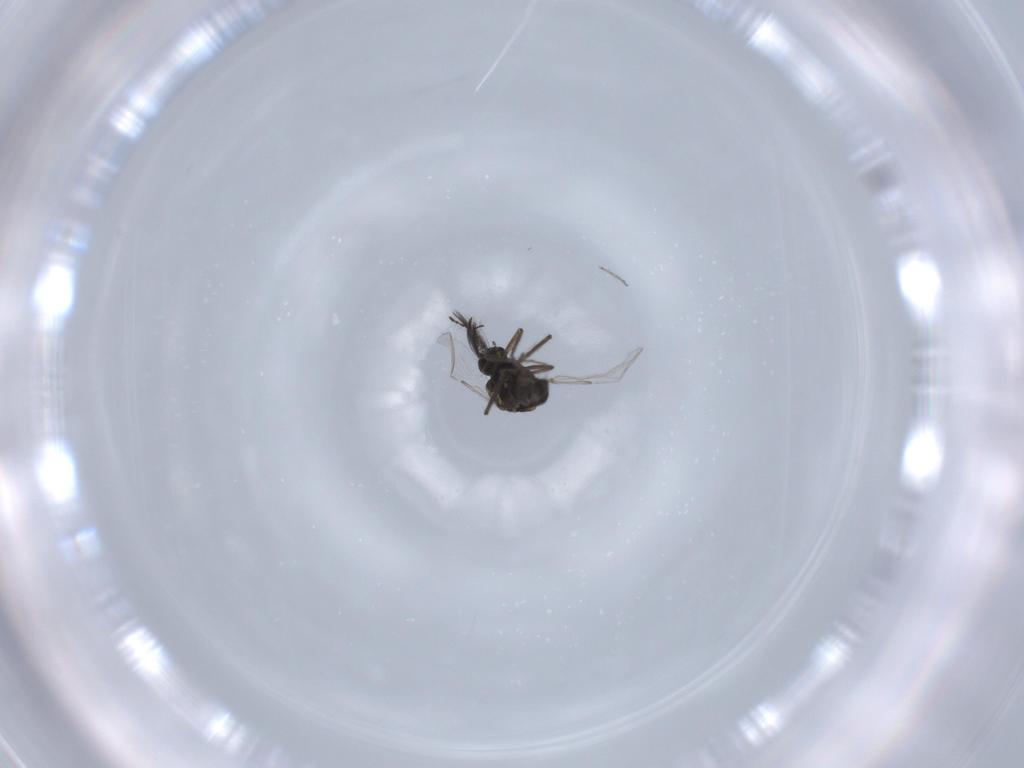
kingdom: Animalia
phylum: Arthropoda
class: Insecta
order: Diptera
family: Ceratopogonidae
